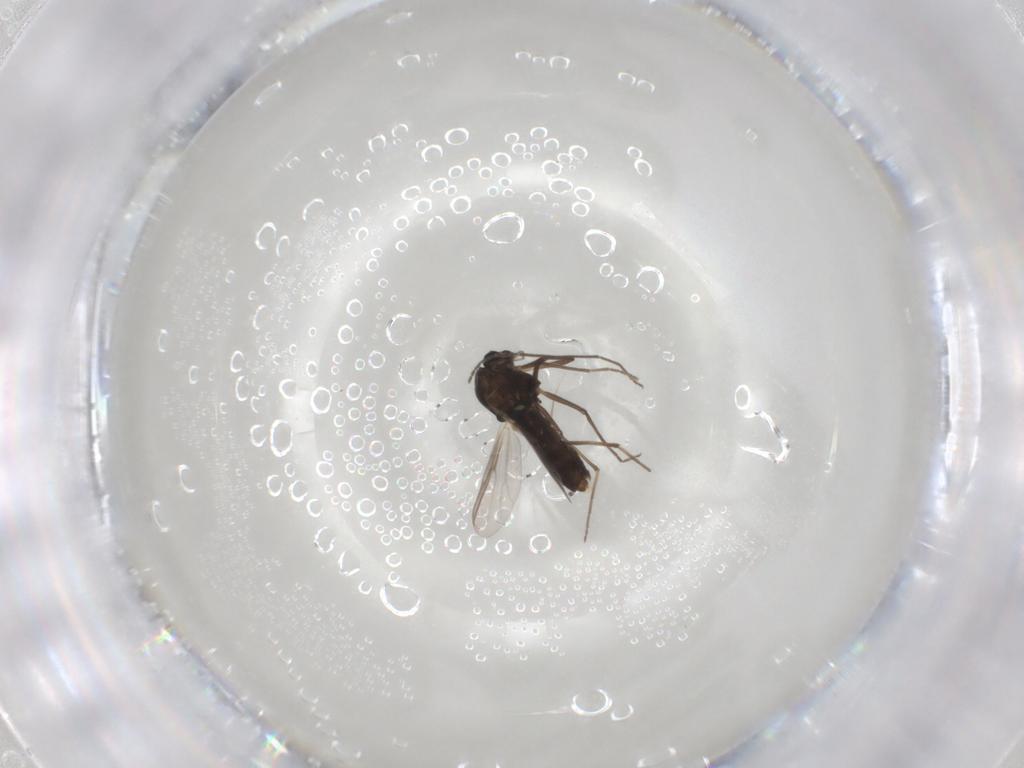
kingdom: Animalia
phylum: Arthropoda
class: Insecta
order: Diptera
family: Chironomidae
